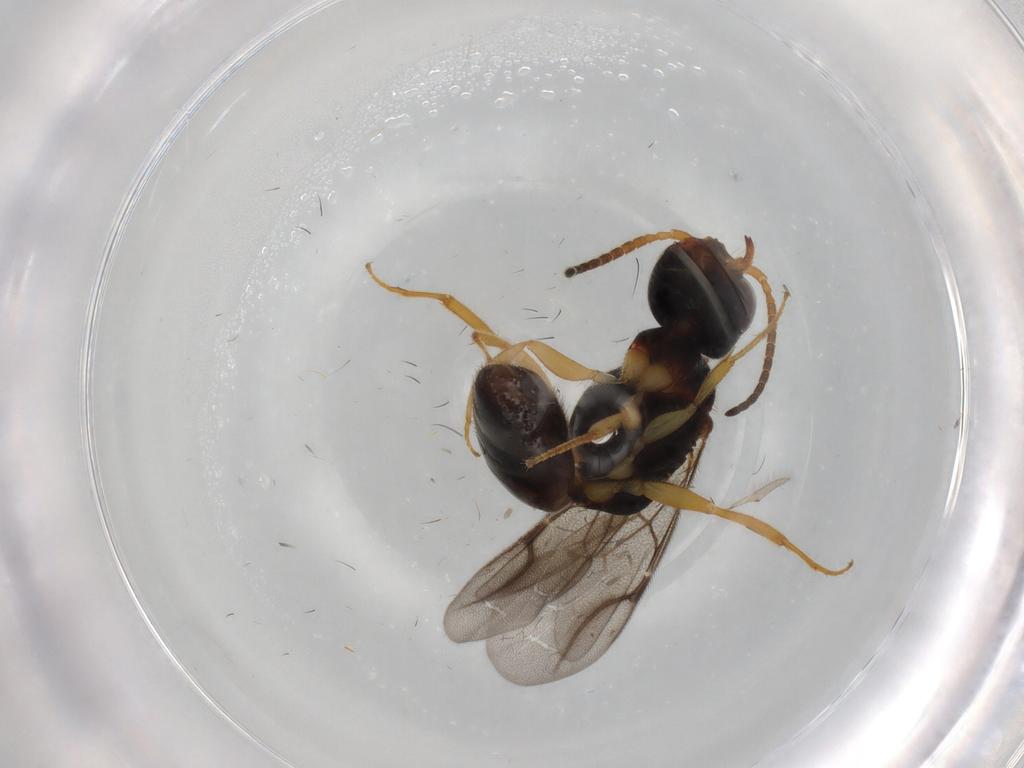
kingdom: Animalia
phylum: Arthropoda
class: Insecta
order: Hymenoptera
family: Bethylidae
